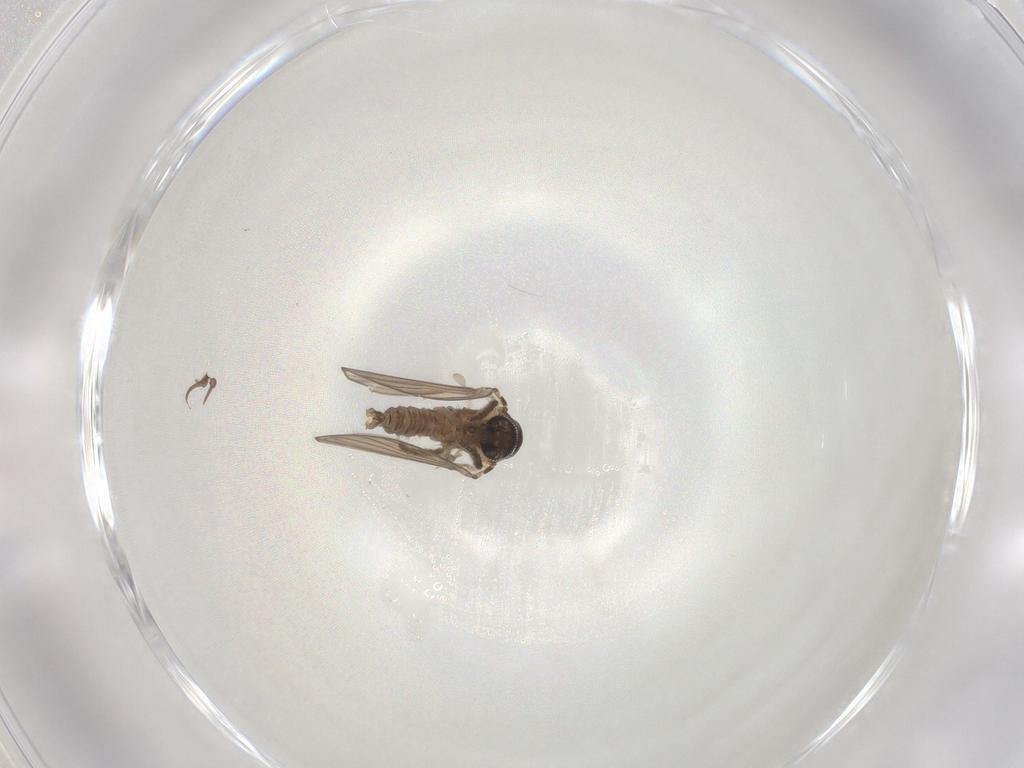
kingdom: Animalia
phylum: Arthropoda
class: Insecta
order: Diptera
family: Psychodidae
